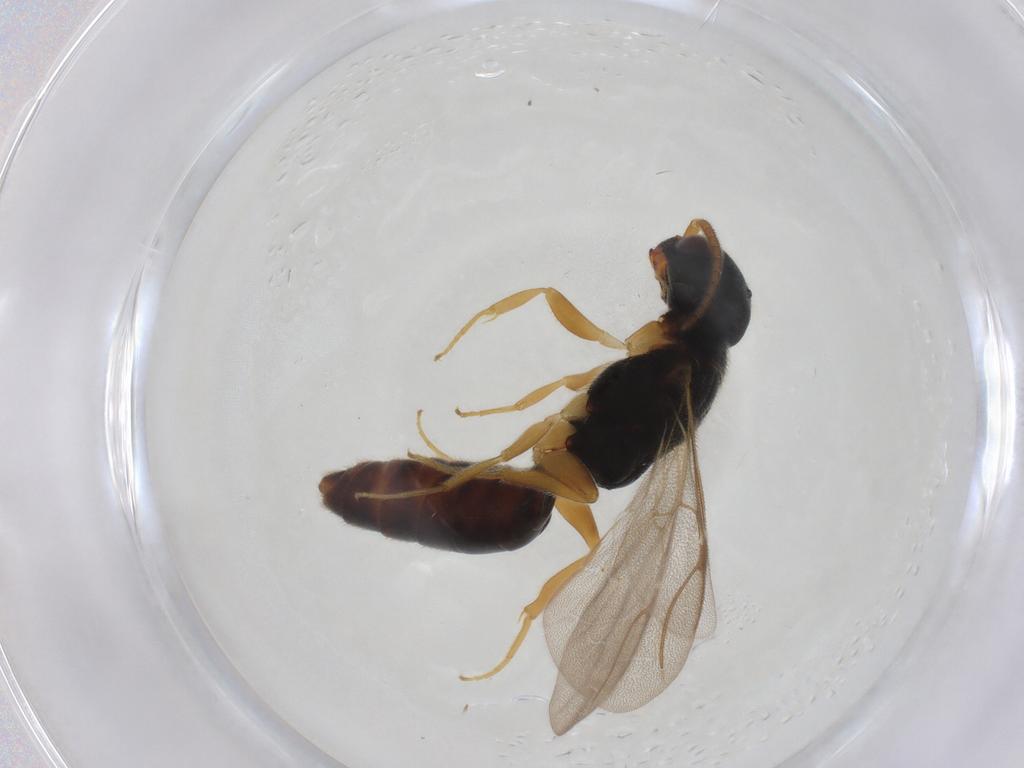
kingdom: Animalia
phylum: Arthropoda
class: Insecta
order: Hymenoptera
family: Bethylidae
